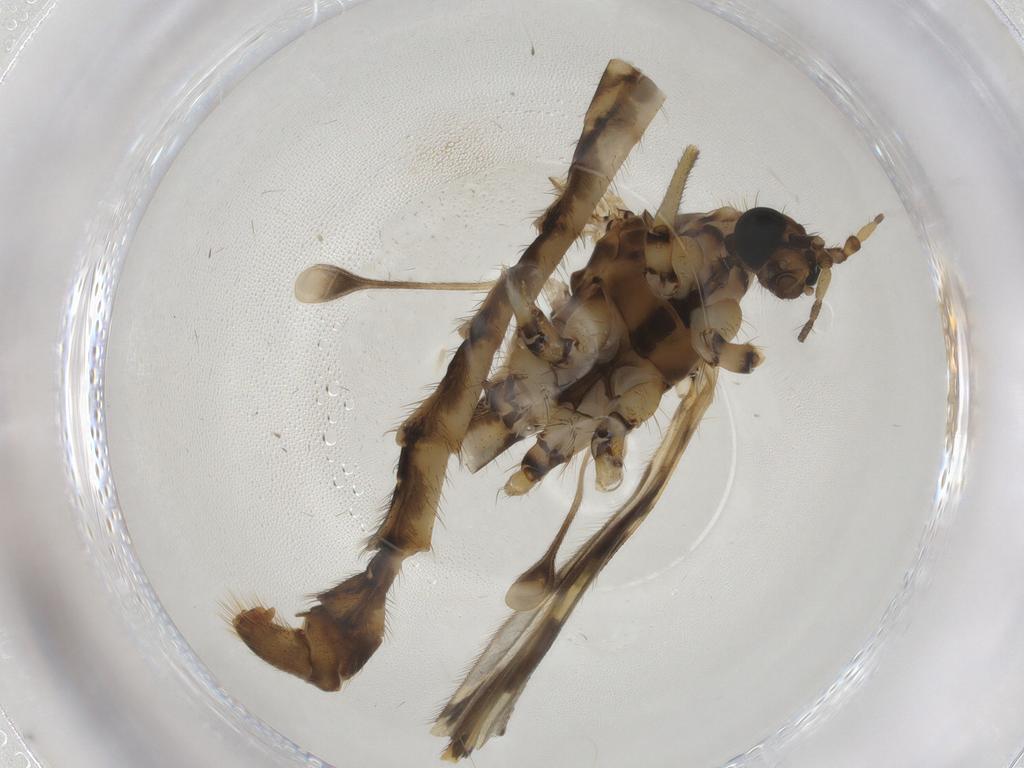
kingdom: Animalia
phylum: Arthropoda
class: Insecta
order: Diptera
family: Limoniidae
